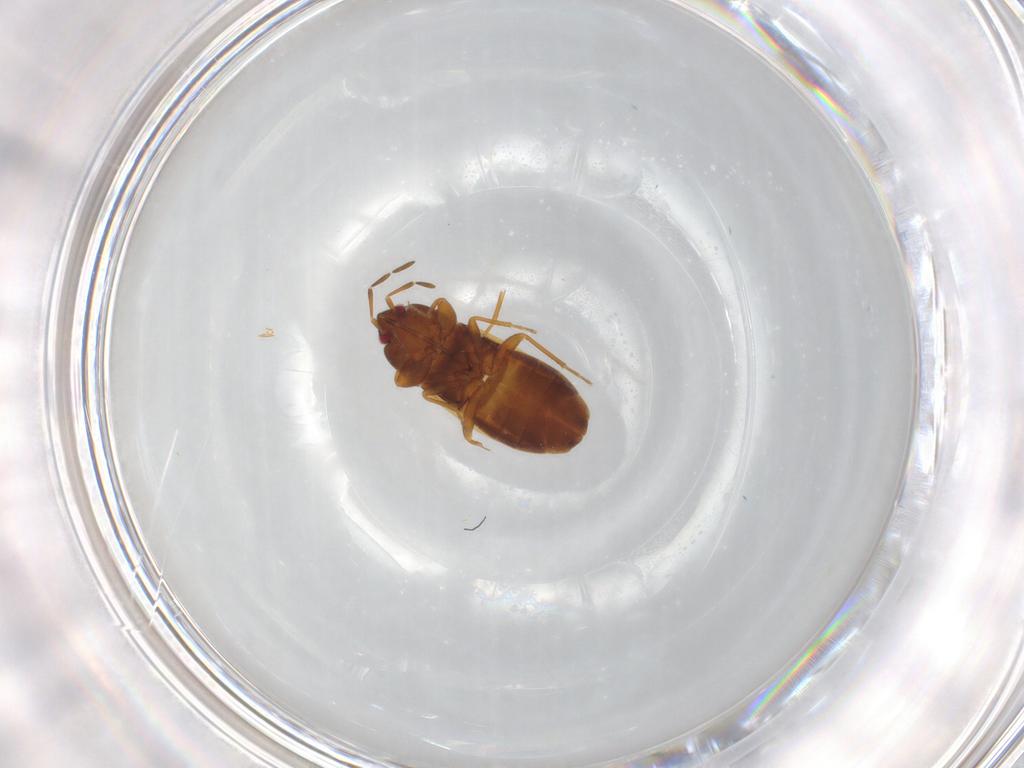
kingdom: Animalia
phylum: Arthropoda
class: Insecta
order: Hemiptera
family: Rhyparochromidae
